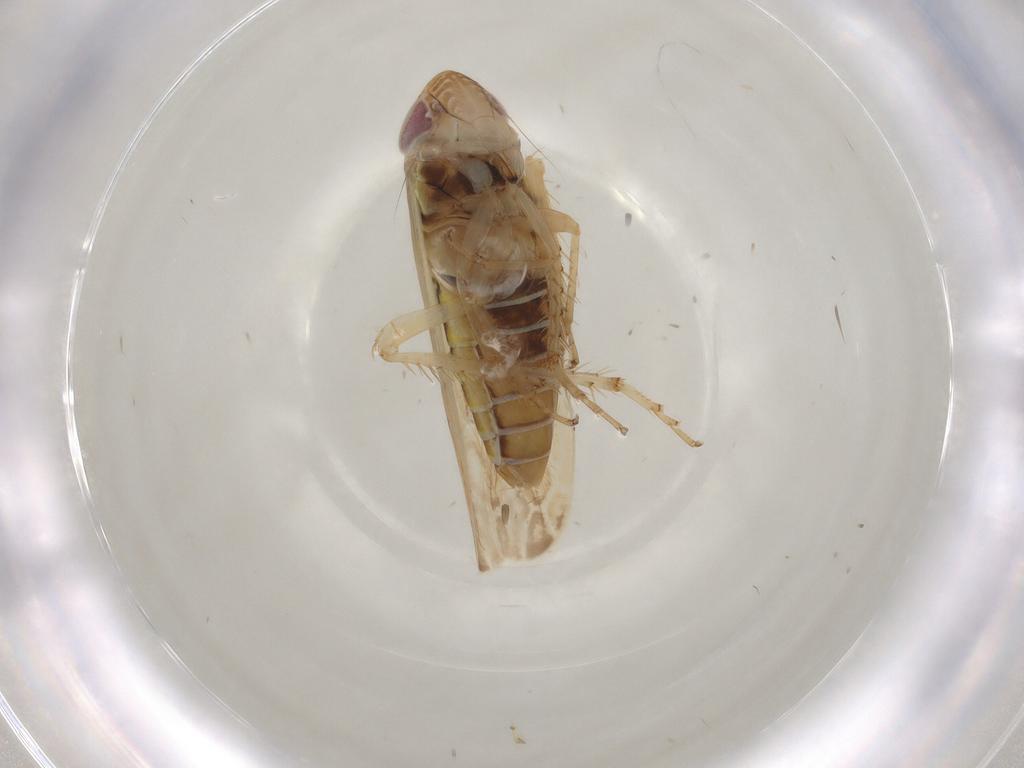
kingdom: Animalia
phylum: Arthropoda
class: Insecta
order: Hemiptera
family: Cicadellidae
